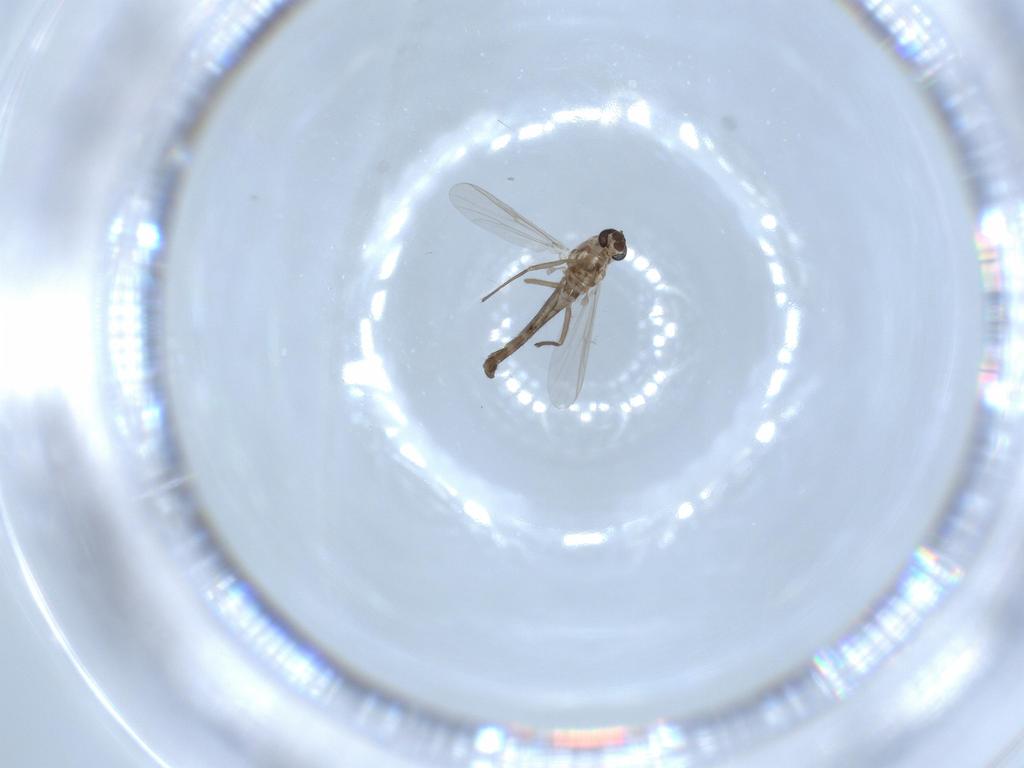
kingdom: Animalia
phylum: Arthropoda
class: Insecta
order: Diptera
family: Chironomidae
